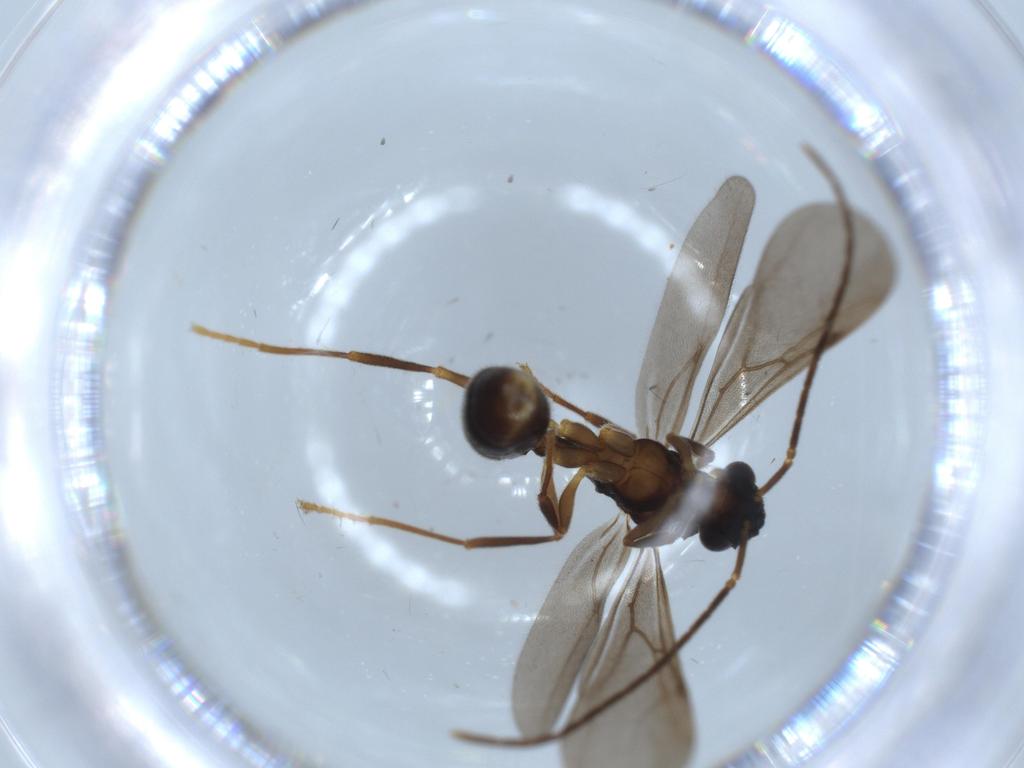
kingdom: Animalia
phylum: Arthropoda
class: Insecta
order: Hymenoptera
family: Formicidae
